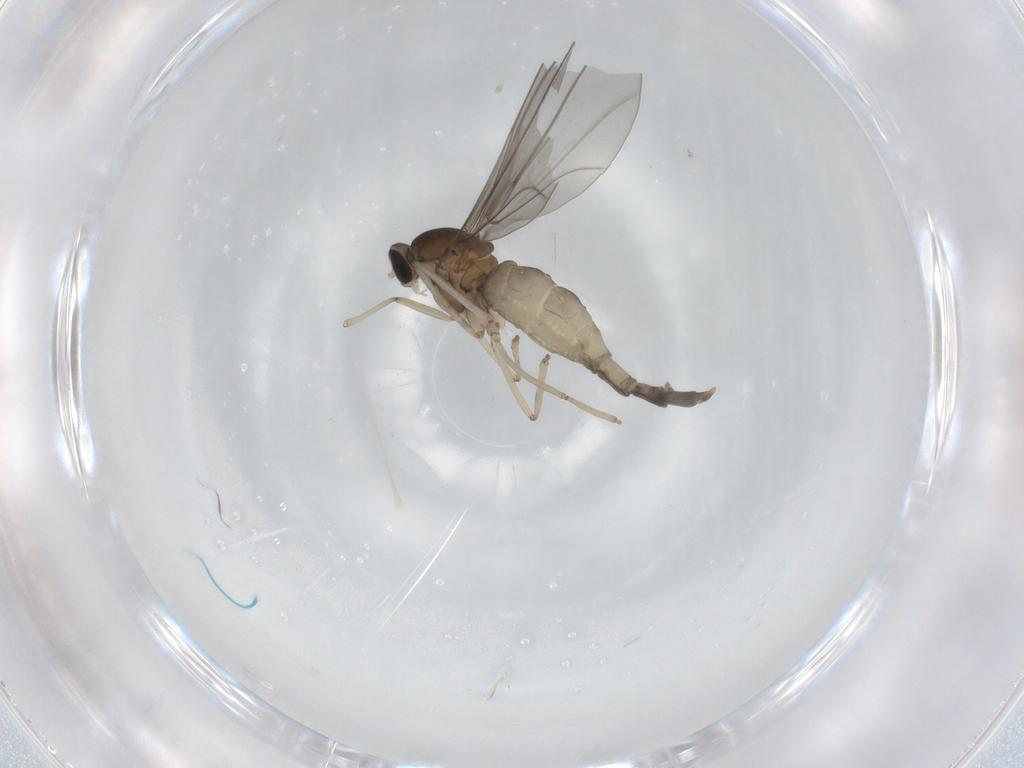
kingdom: Animalia
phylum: Arthropoda
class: Insecta
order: Diptera
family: Cecidomyiidae
